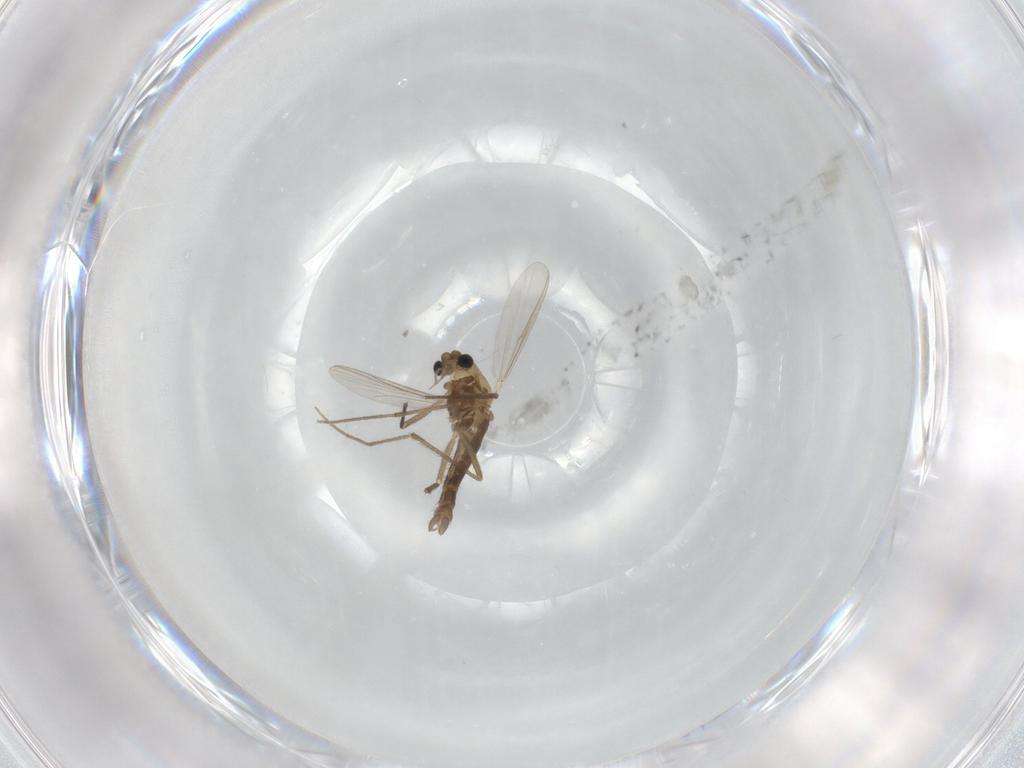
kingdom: Animalia
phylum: Arthropoda
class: Insecta
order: Diptera
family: Chironomidae
